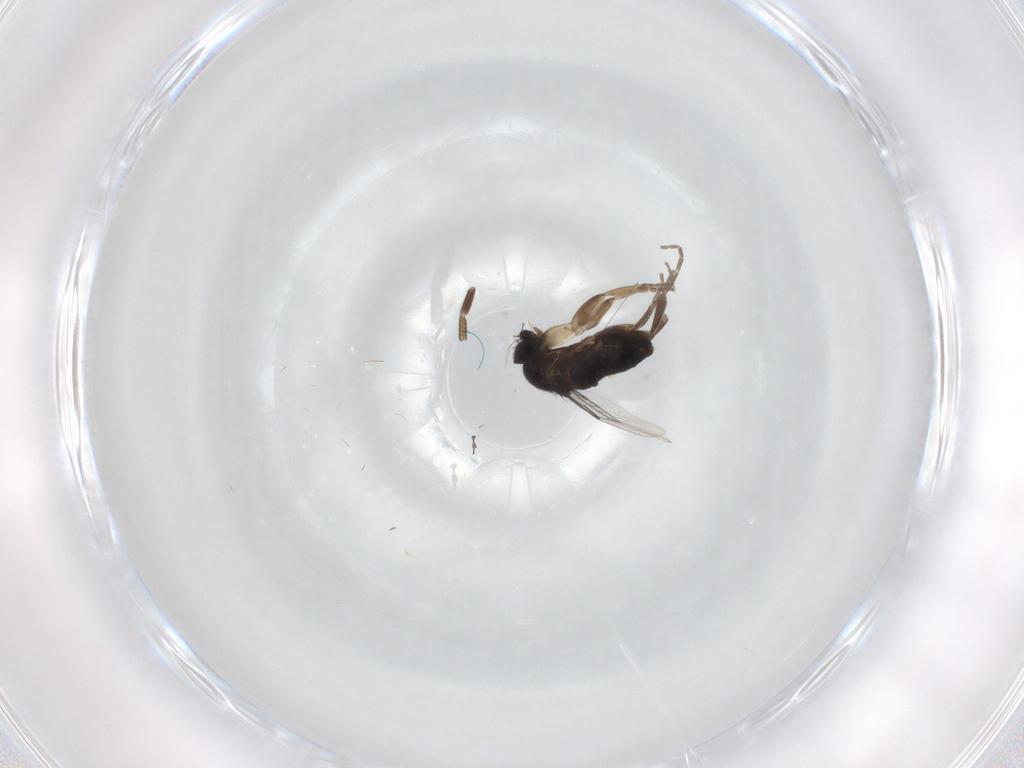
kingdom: Animalia
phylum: Arthropoda
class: Insecta
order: Diptera
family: Phoridae
